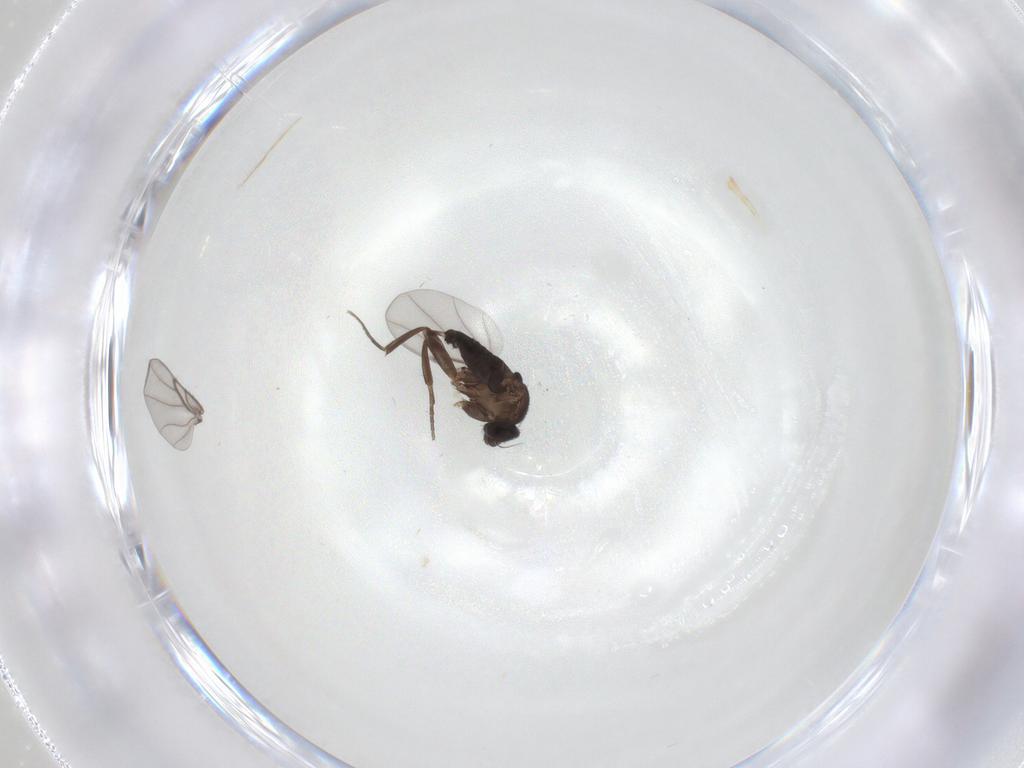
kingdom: Animalia
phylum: Arthropoda
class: Insecta
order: Diptera
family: Phoridae
